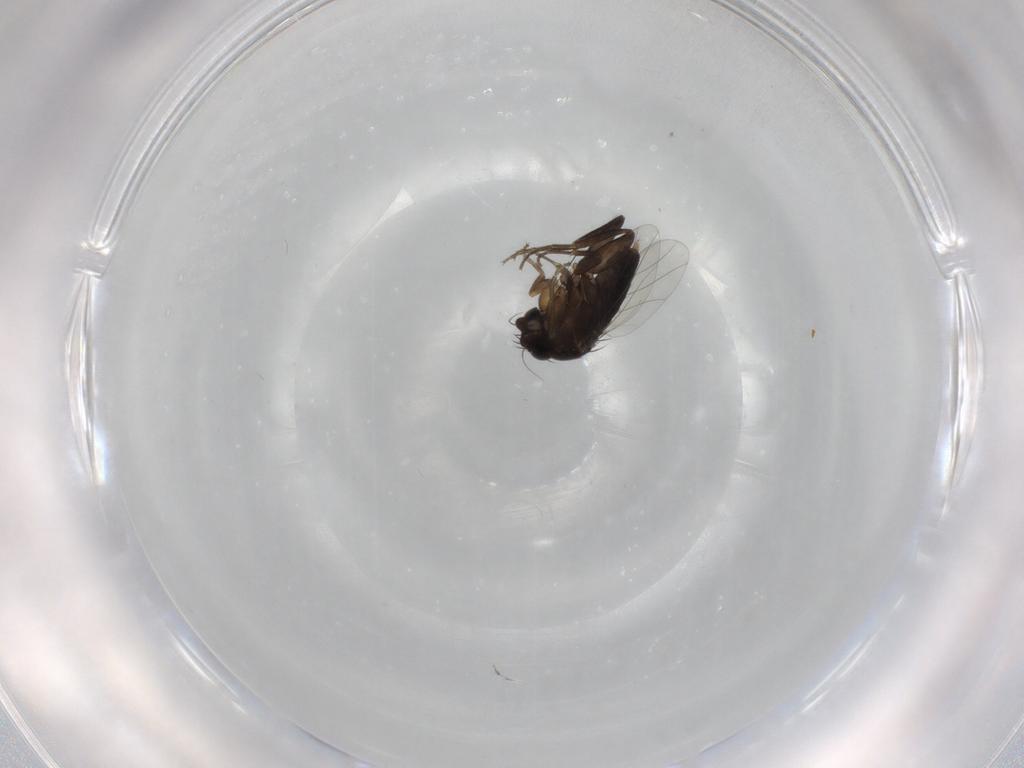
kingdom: Animalia
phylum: Arthropoda
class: Insecta
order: Diptera
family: Phoridae
